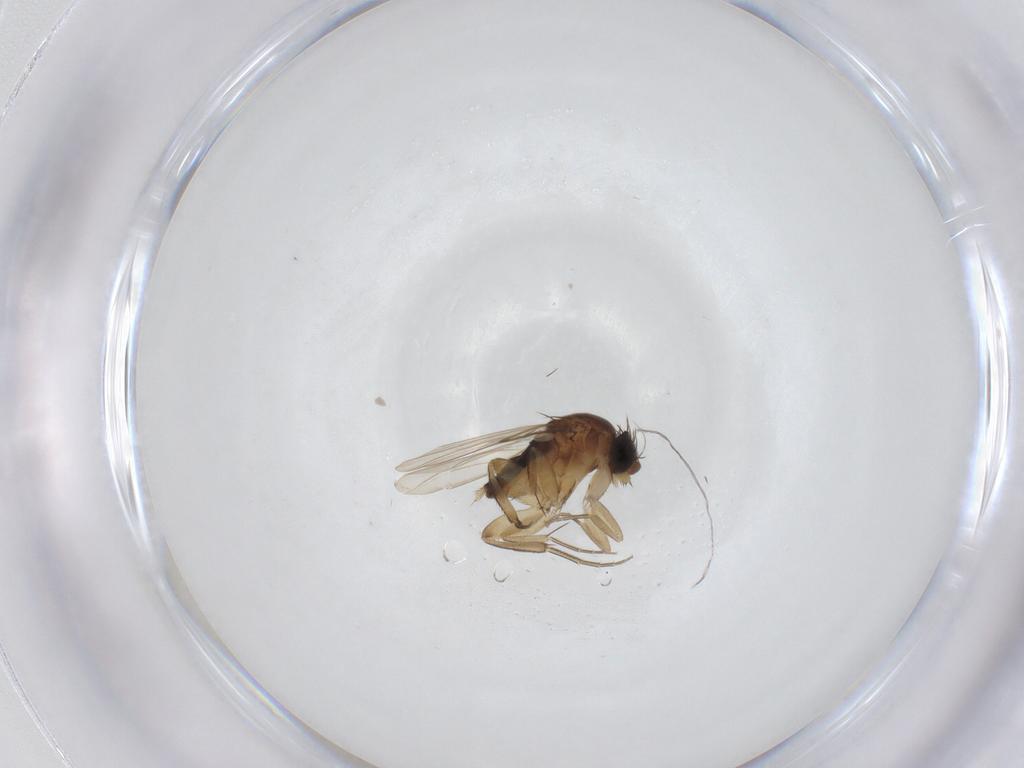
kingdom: Animalia
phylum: Arthropoda
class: Insecta
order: Diptera
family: Phoridae
